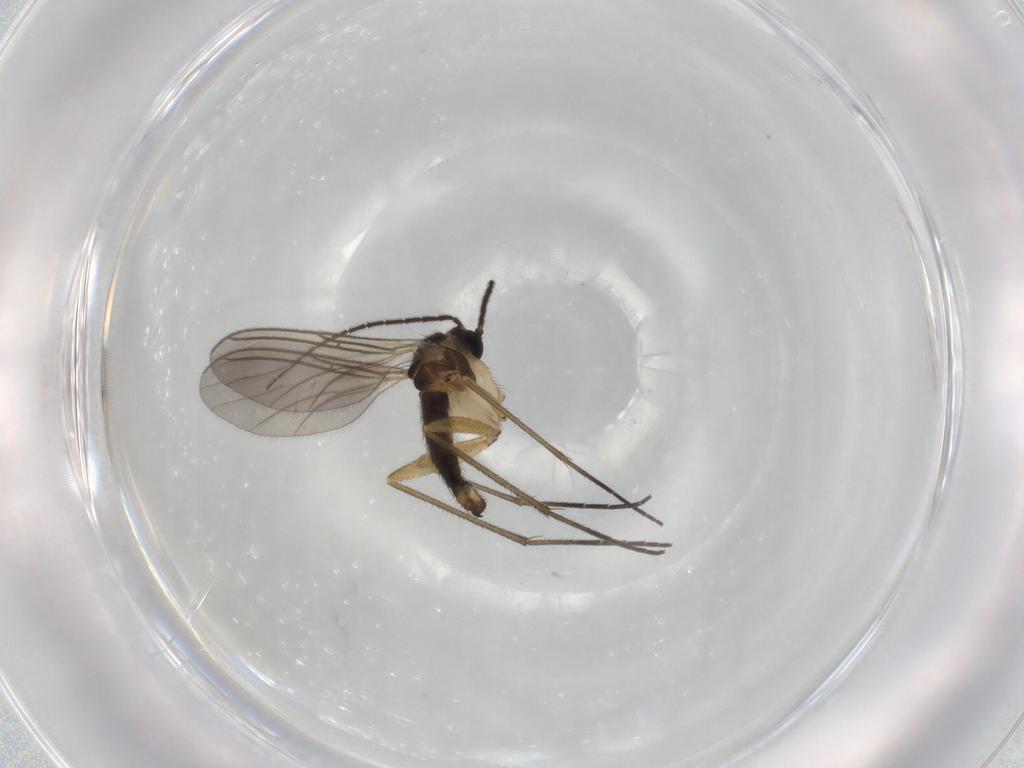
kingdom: Animalia
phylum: Arthropoda
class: Insecta
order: Diptera
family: Sciaridae
